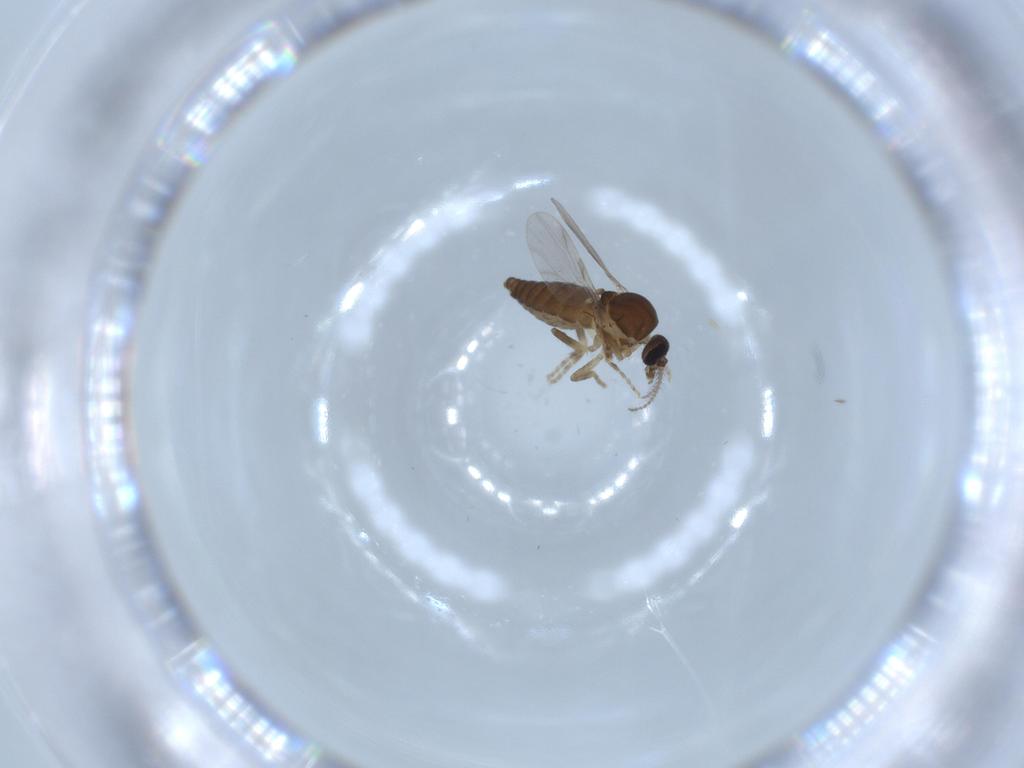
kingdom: Animalia
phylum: Arthropoda
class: Insecta
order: Diptera
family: Ceratopogonidae
